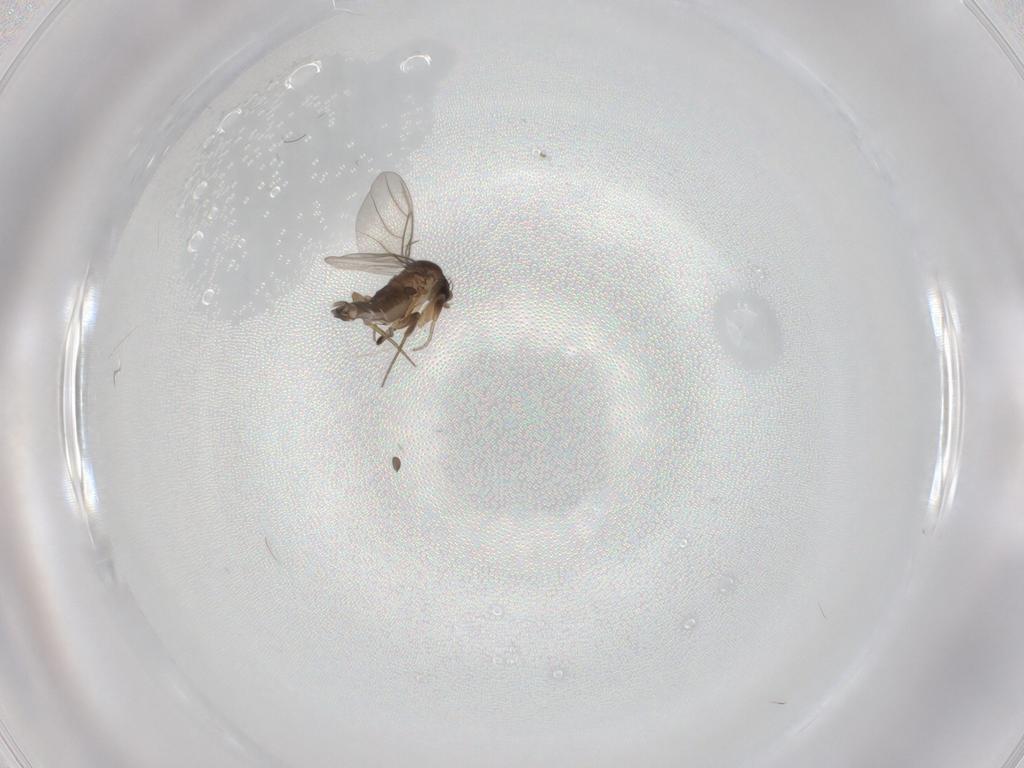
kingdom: Animalia
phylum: Arthropoda
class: Insecta
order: Diptera
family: Phoridae
